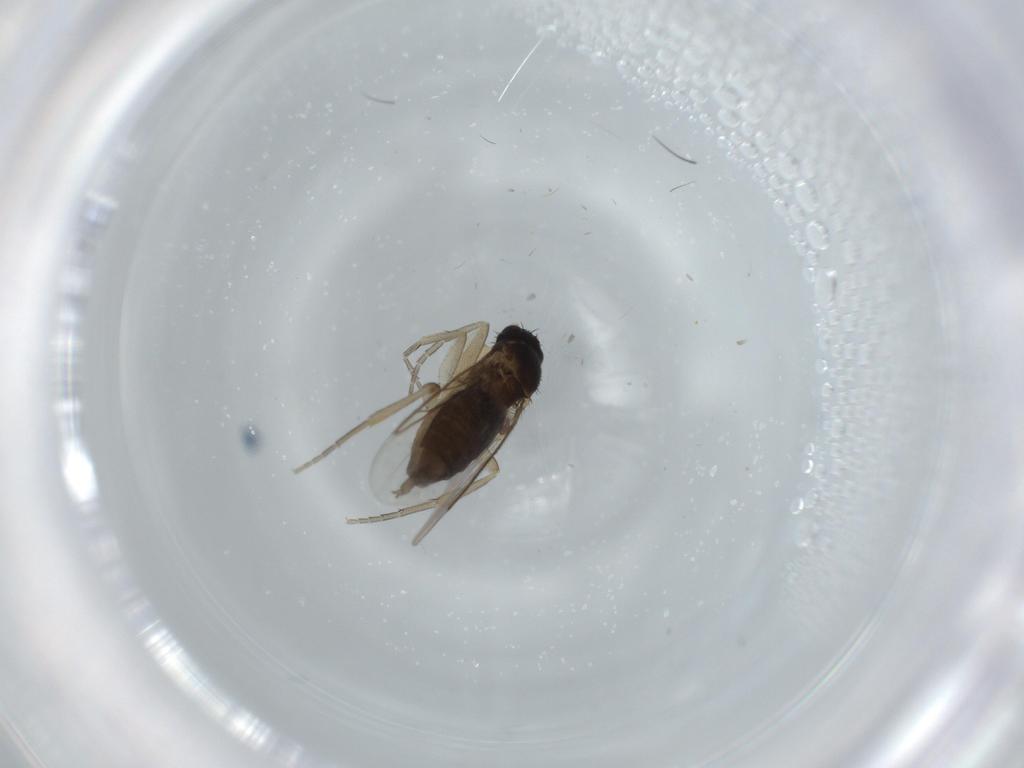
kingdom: Animalia
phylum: Arthropoda
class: Insecta
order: Diptera
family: Phoridae
